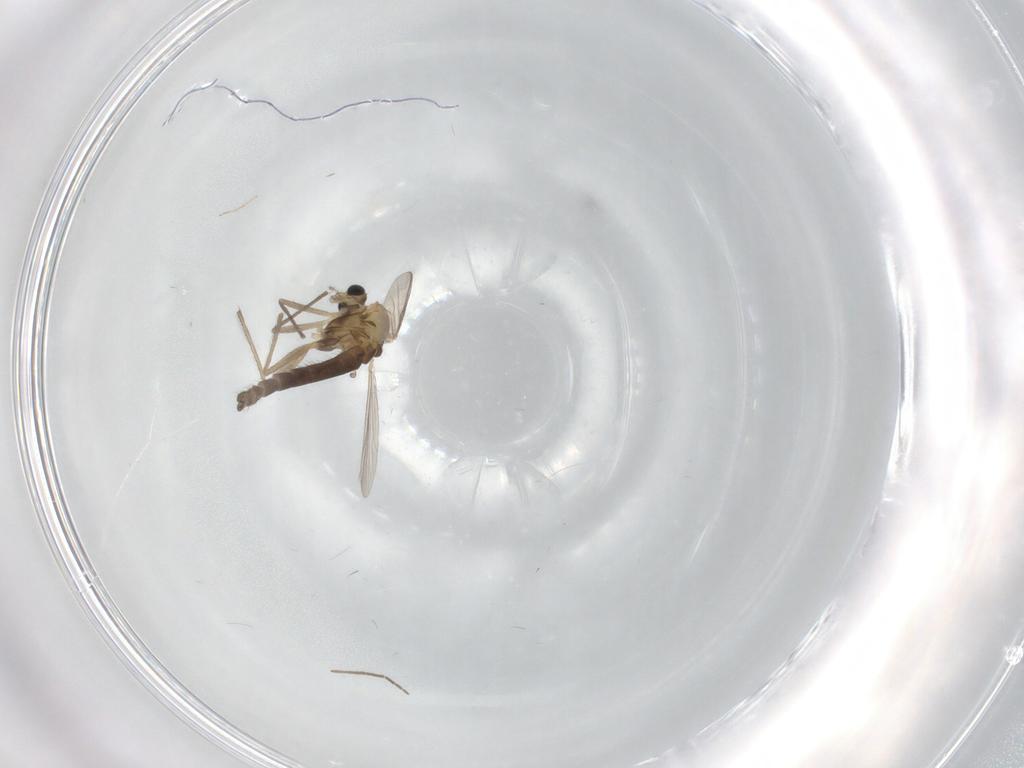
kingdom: Animalia
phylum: Arthropoda
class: Insecta
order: Diptera
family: Chironomidae
